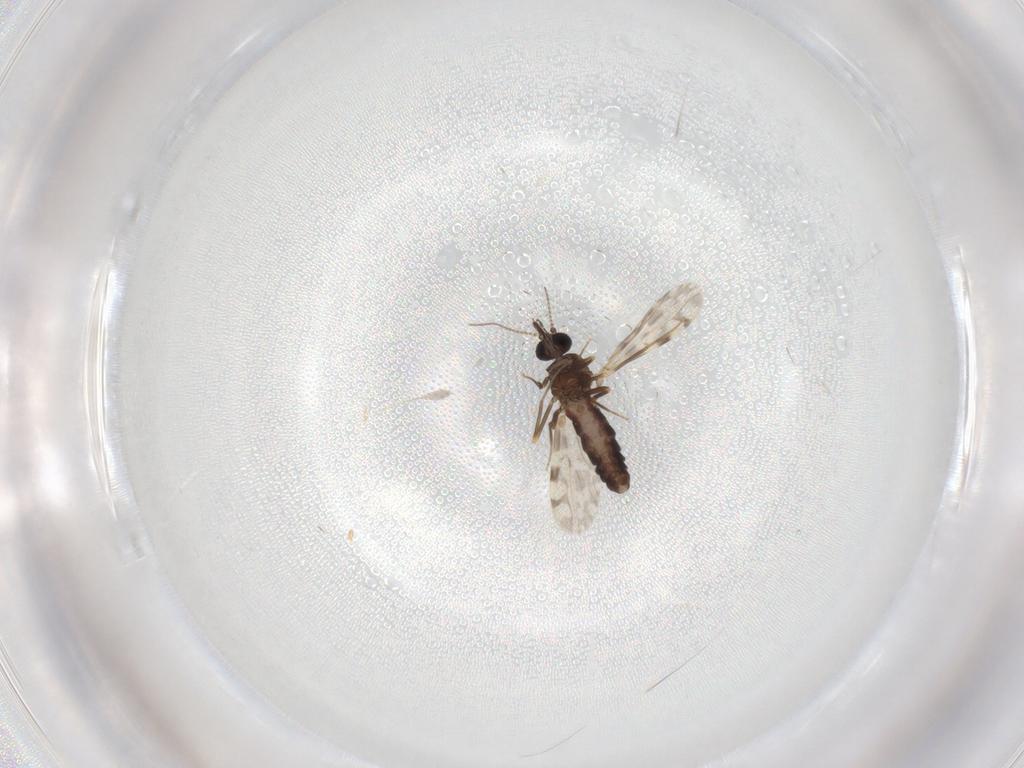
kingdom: Animalia
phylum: Arthropoda
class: Insecta
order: Diptera
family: Ceratopogonidae
